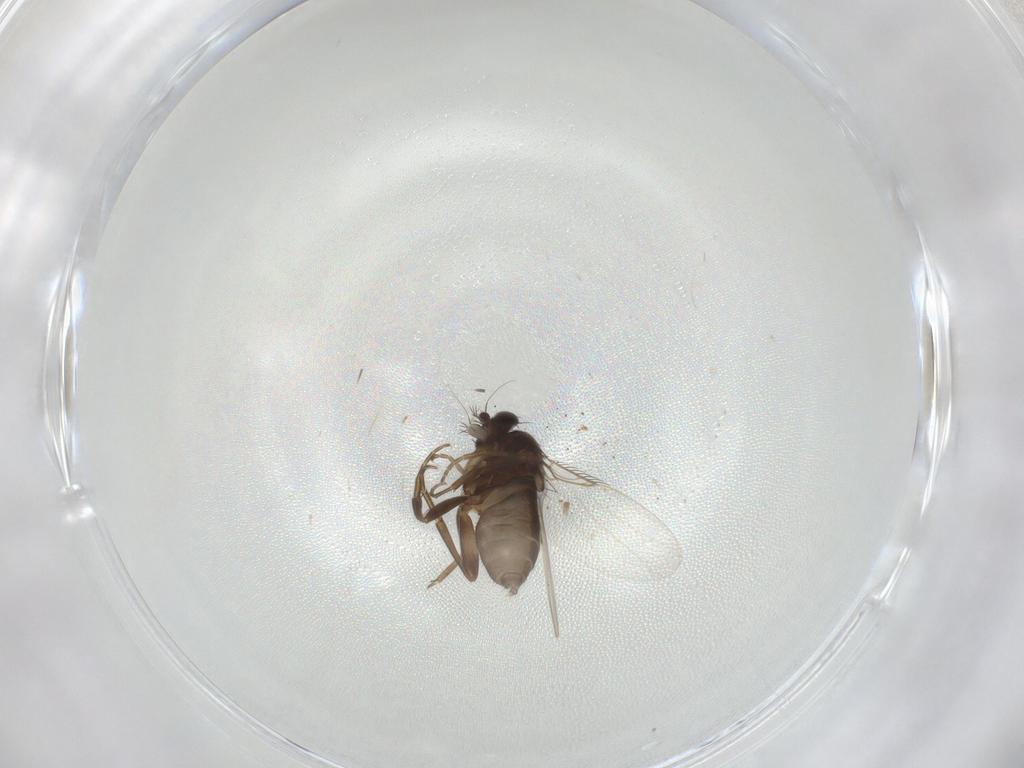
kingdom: Animalia
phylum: Arthropoda
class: Insecta
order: Diptera
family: Phoridae
